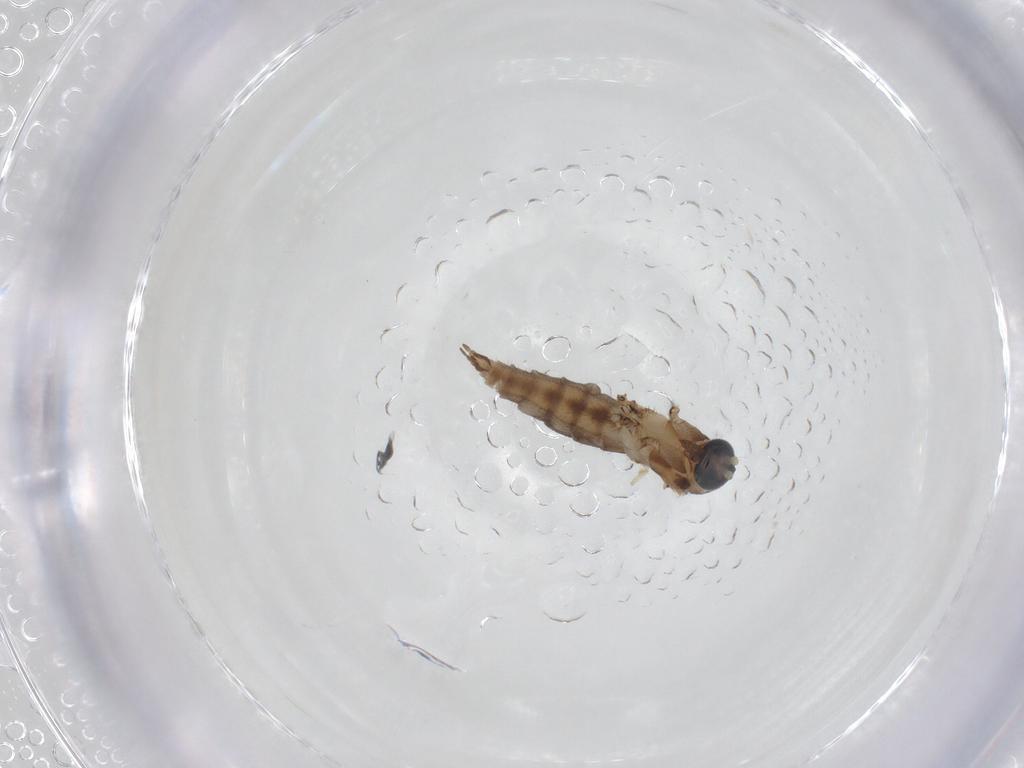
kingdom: Animalia
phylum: Arthropoda
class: Insecta
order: Diptera
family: Sciaridae
